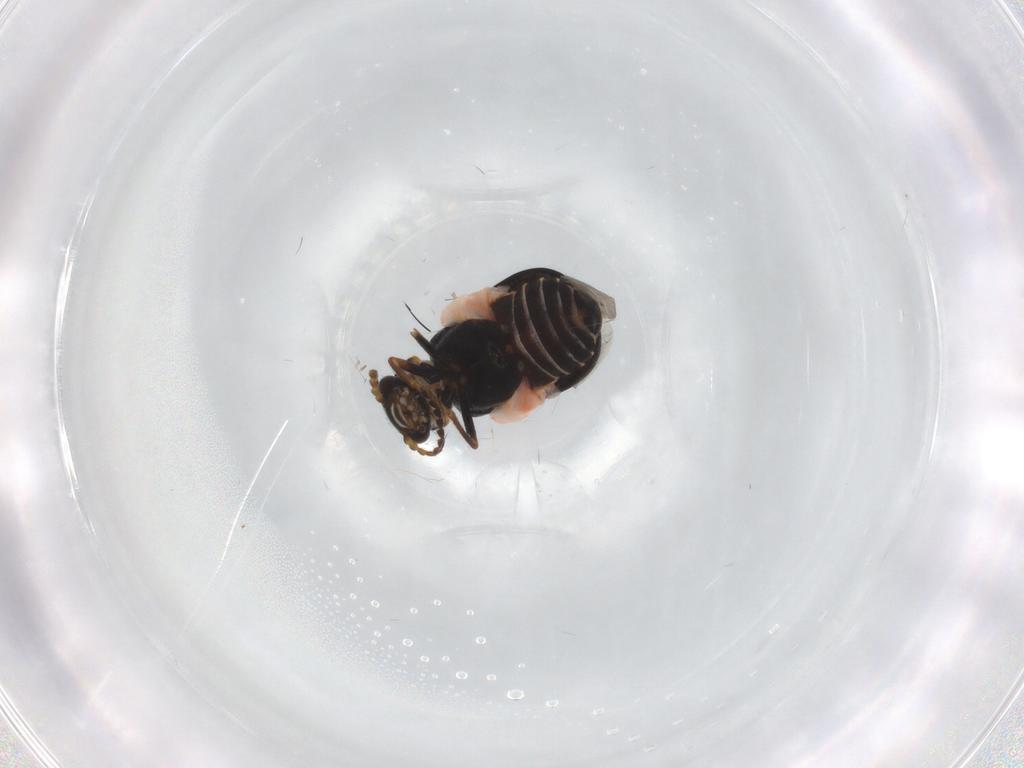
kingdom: Animalia
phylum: Arthropoda
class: Insecta
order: Coleoptera
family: Melyridae
